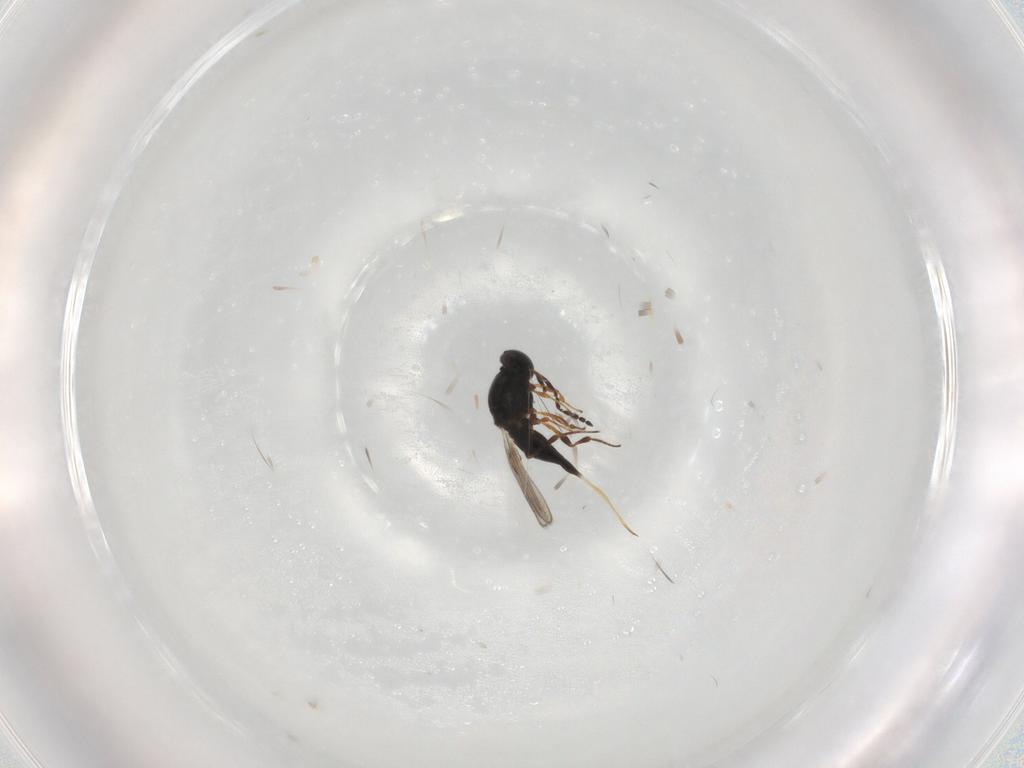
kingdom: Animalia
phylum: Arthropoda
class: Insecta
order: Hymenoptera
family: Platygastridae
